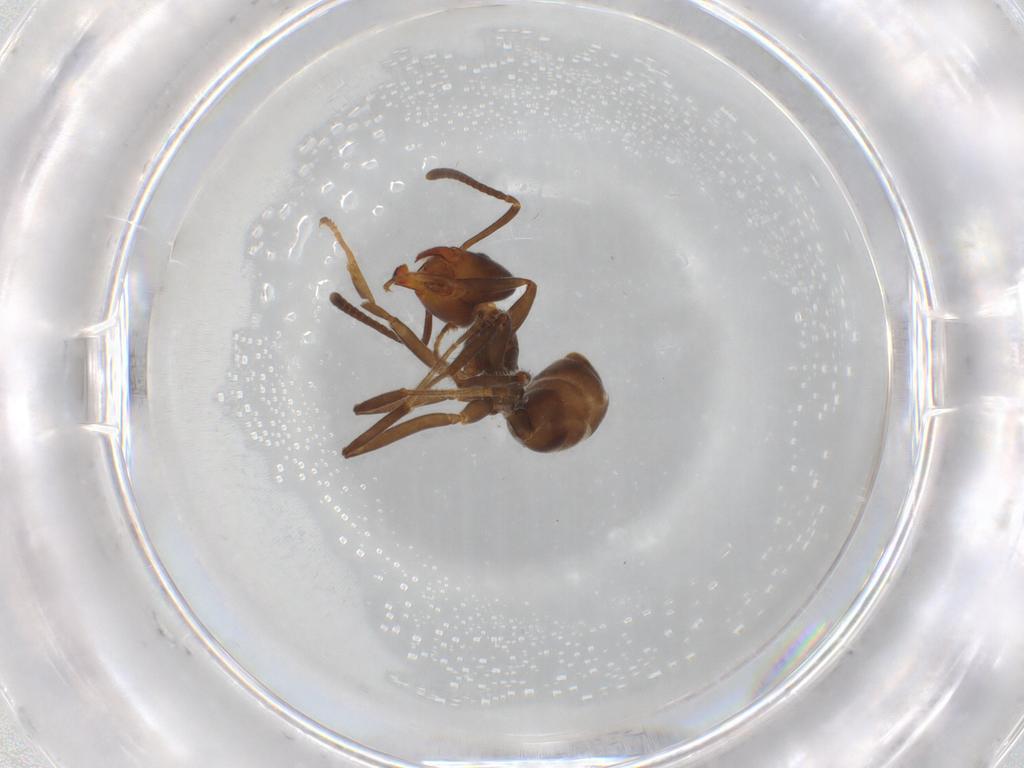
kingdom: Animalia
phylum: Arthropoda
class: Insecta
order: Hymenoptera
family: Formicidae
